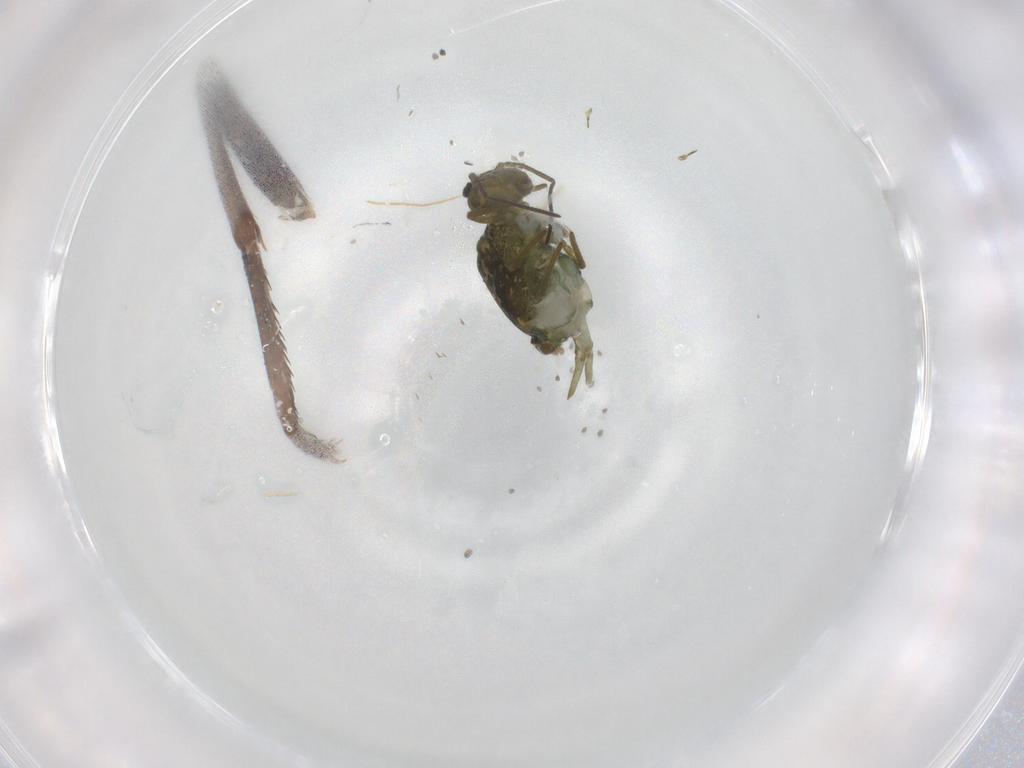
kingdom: Animalia
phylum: Arthropoda
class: Collembola
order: Symphypleona
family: Sminthuridae
